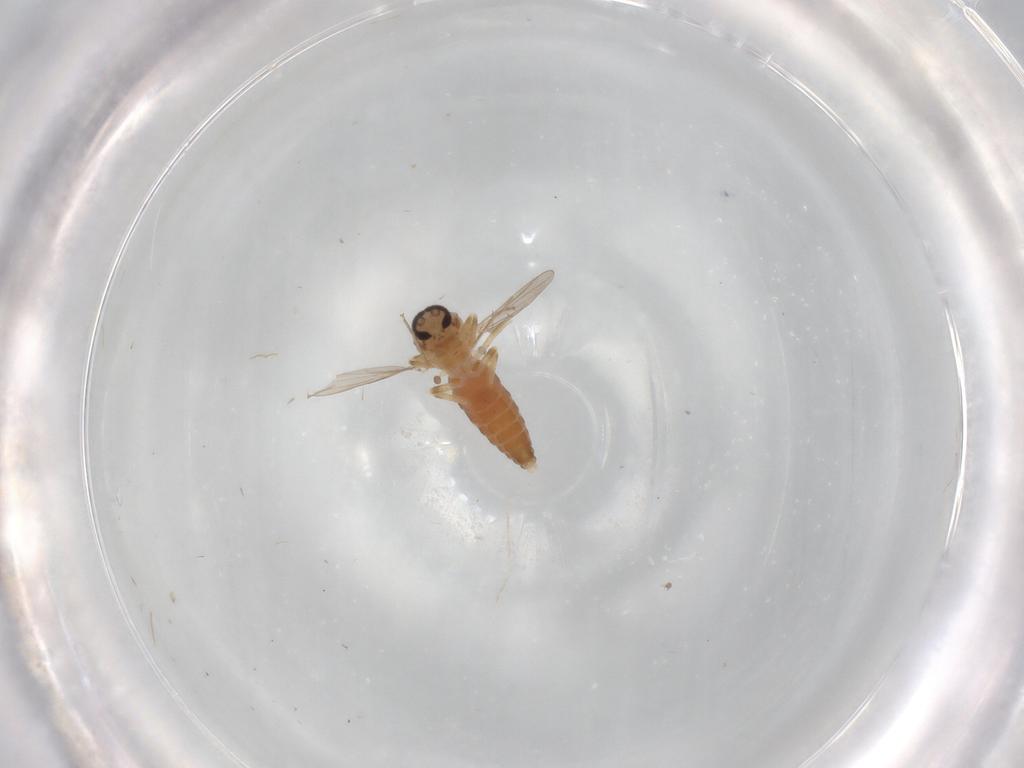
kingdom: Animalia
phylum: Arthropoda
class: Insecta
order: Diptera
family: Psychodidae
